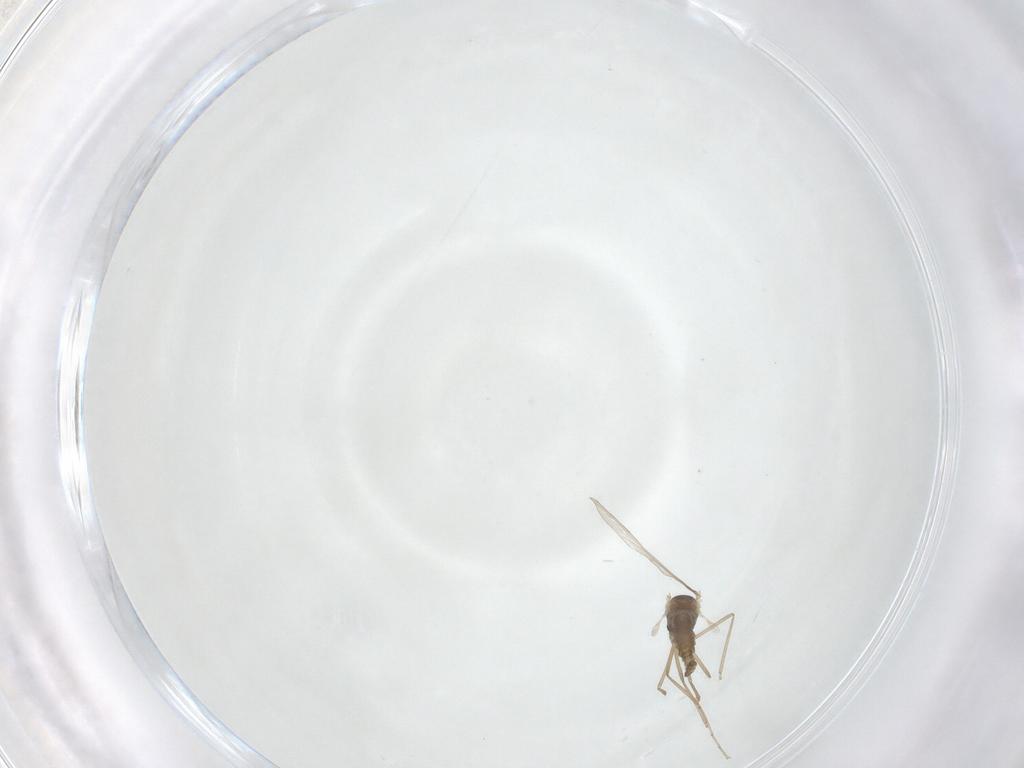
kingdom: Animalia
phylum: Arthropoda
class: Insecta
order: Diptera
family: Cecidomyiidae
